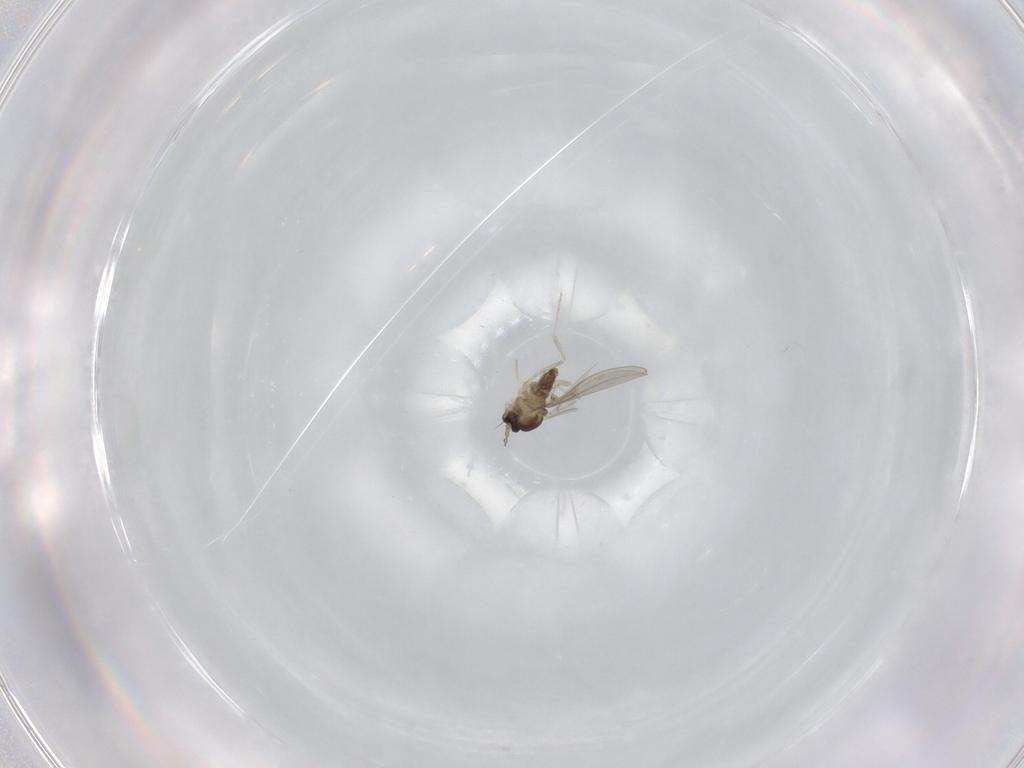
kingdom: Animalia
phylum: Arthropoda
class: Insecta
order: Diptera
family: Cecidomyiidae
